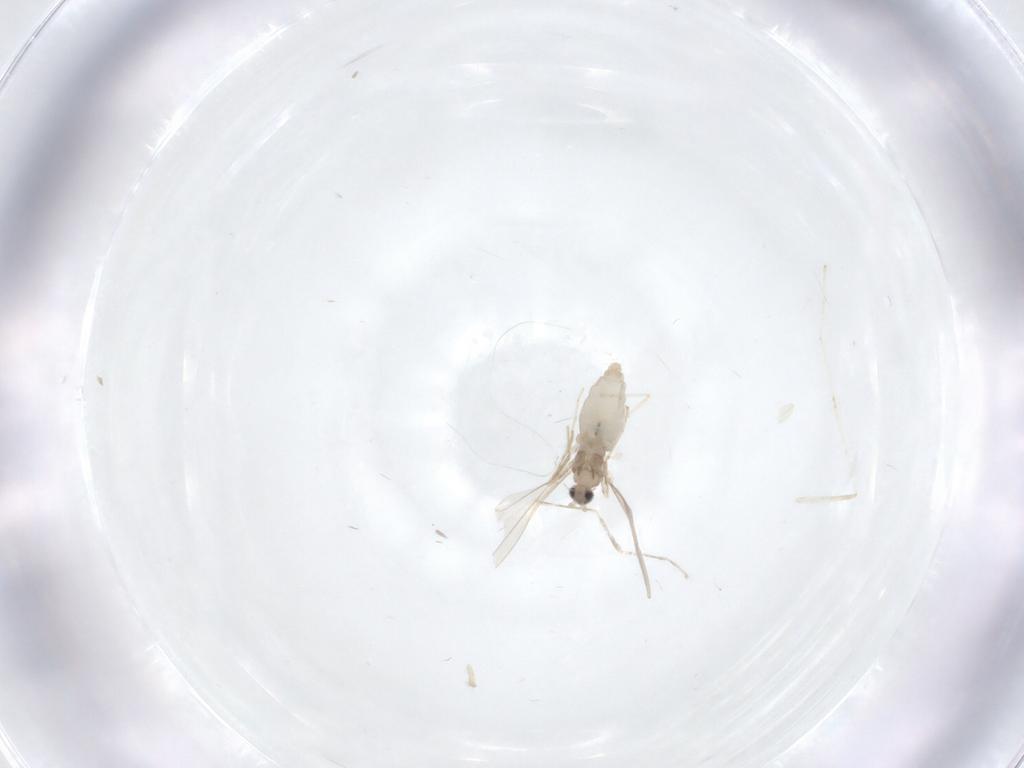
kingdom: Animalia
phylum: Arthropoda
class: Insecta
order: Diptera
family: Cecidomyiidae
